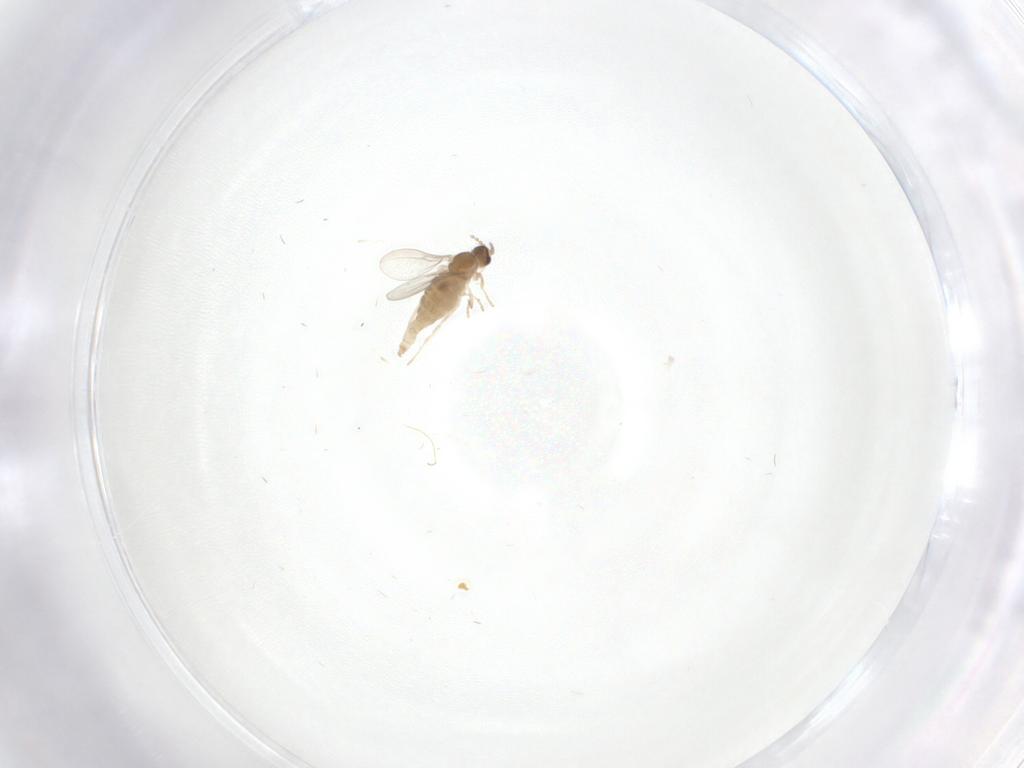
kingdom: Animalia
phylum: Arthropoda
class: Insecta
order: Diptera
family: Cecidomyiidae
